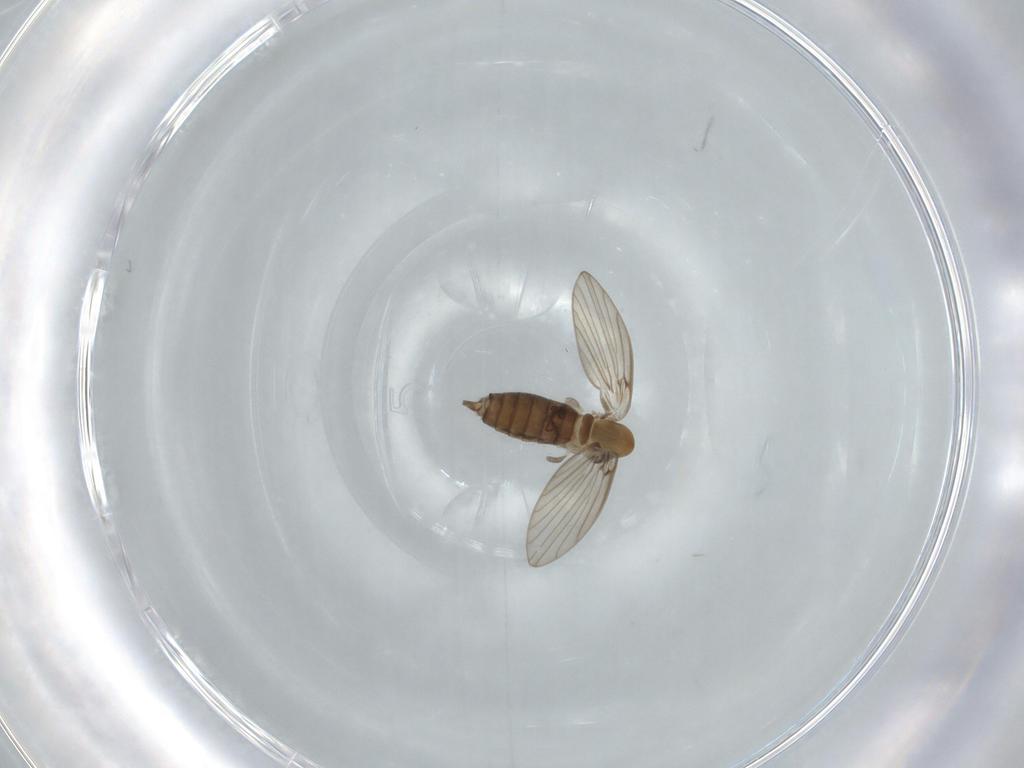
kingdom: Animalia
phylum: Arthropoda
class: Insecta
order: Diptera
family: Psychodidae
